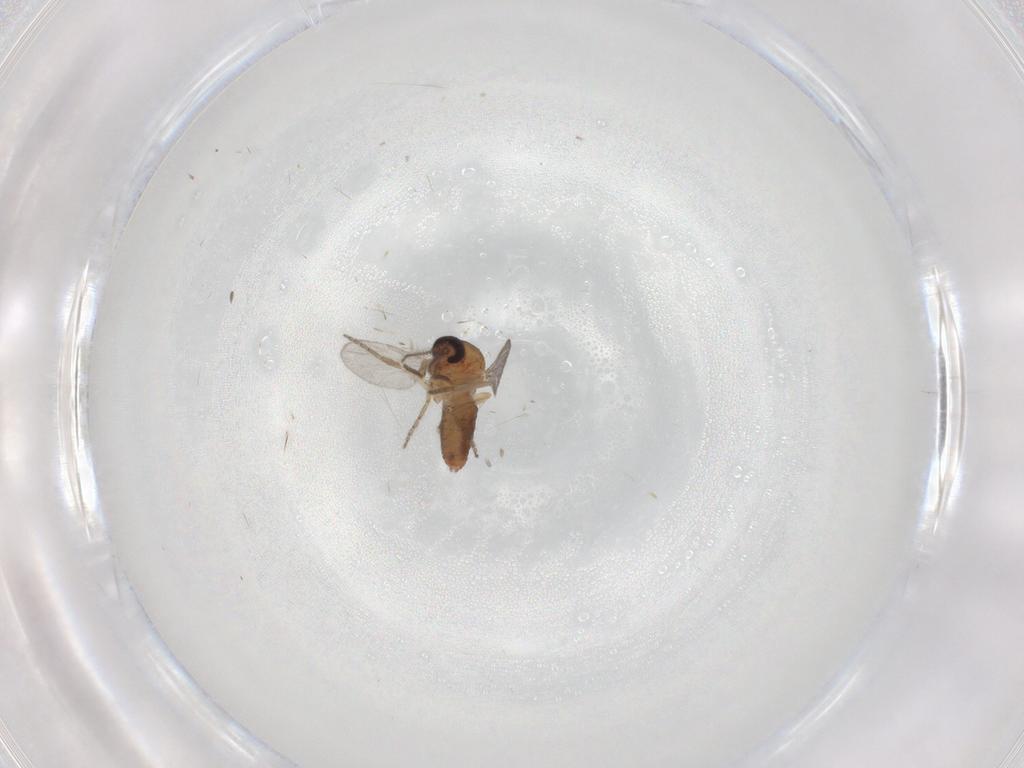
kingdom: Animalia
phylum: Arthropoda
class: Insecta
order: Diptera
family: Ceratopogonidae
